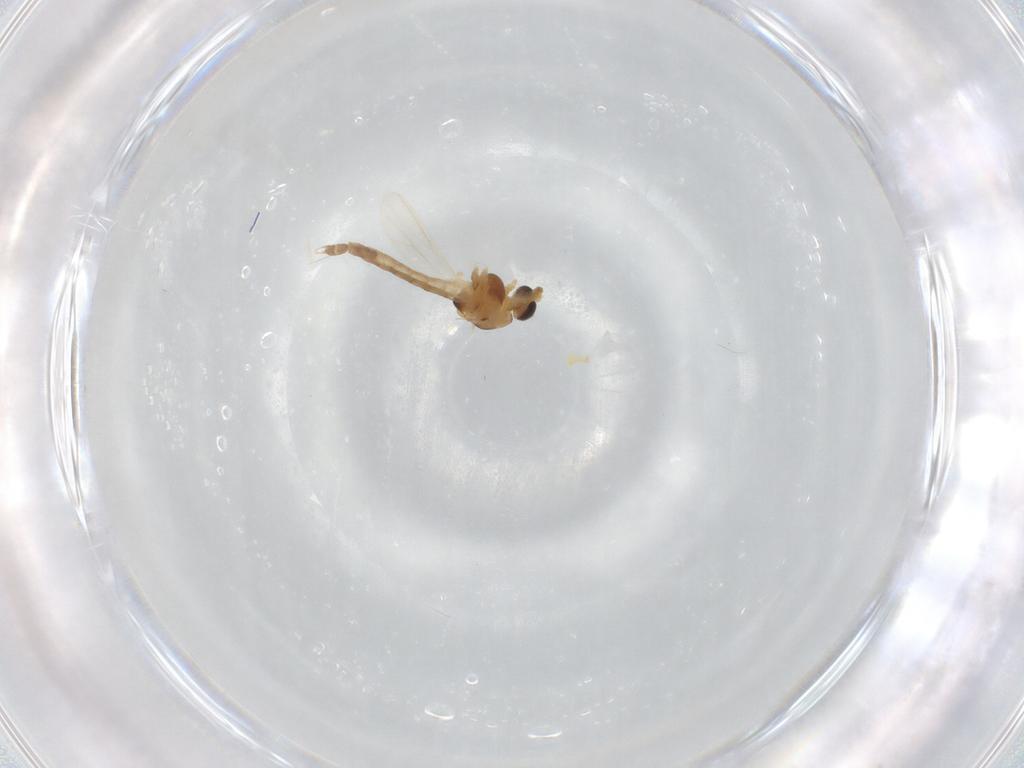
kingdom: Animalia
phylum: Arthropoda
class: Insecta
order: Diptera
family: Chironomidae
